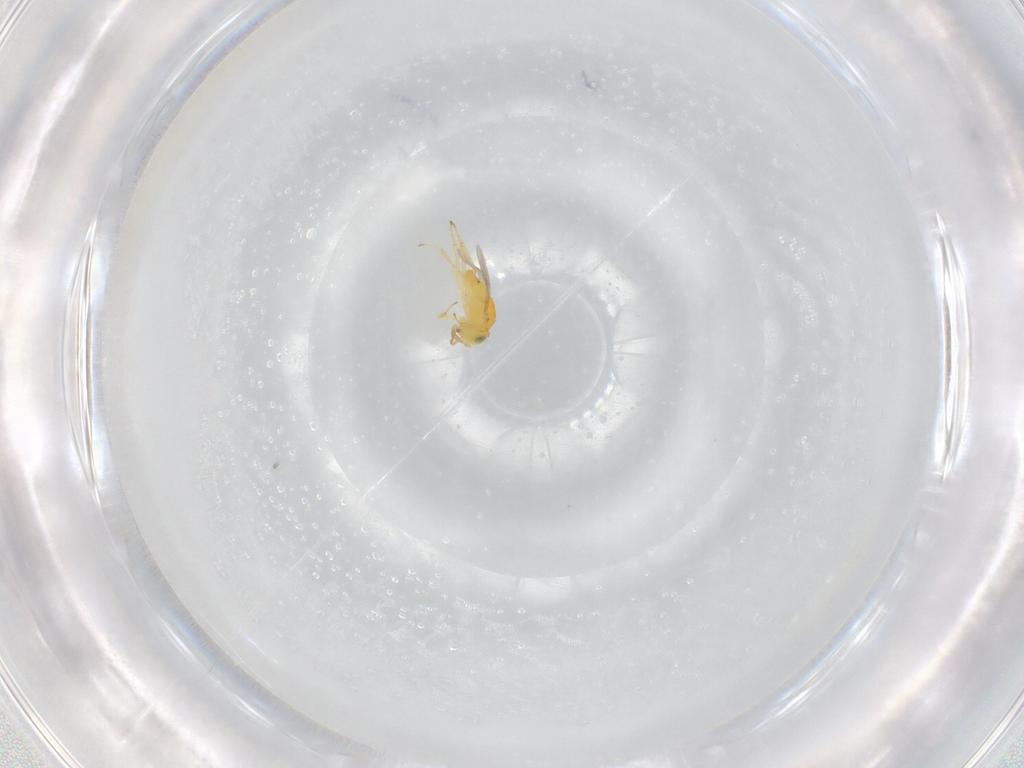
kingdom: Animalia
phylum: Arthropoda
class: Insecta
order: Hymenoptera
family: Encyrtidae
